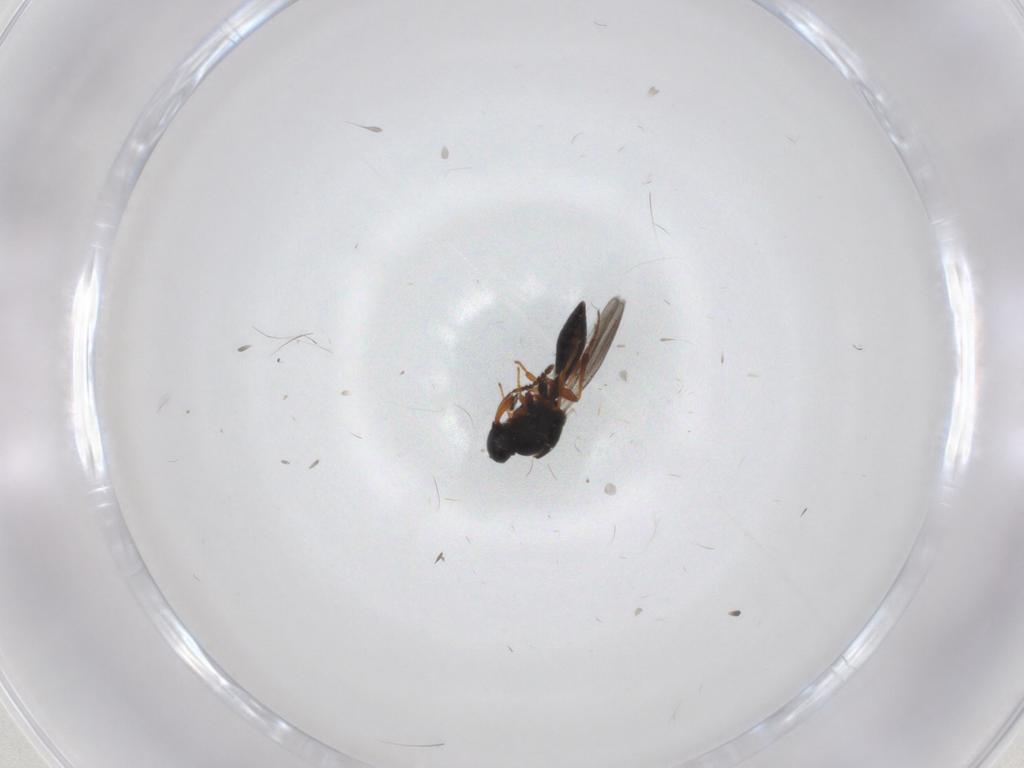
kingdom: Animalia
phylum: Arthropoda
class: Insecta
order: Hymenoptera
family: Platygastridae
